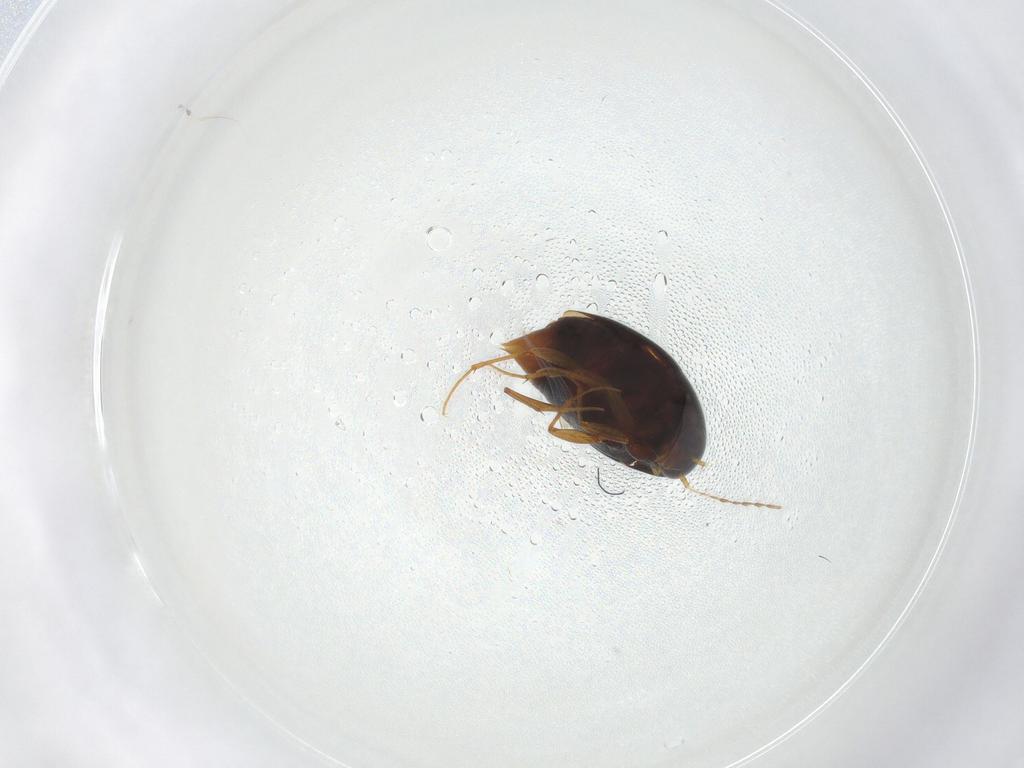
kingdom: Animalia
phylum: Arthropoda
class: Insecta
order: Coleoptera
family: Staphylinidae
